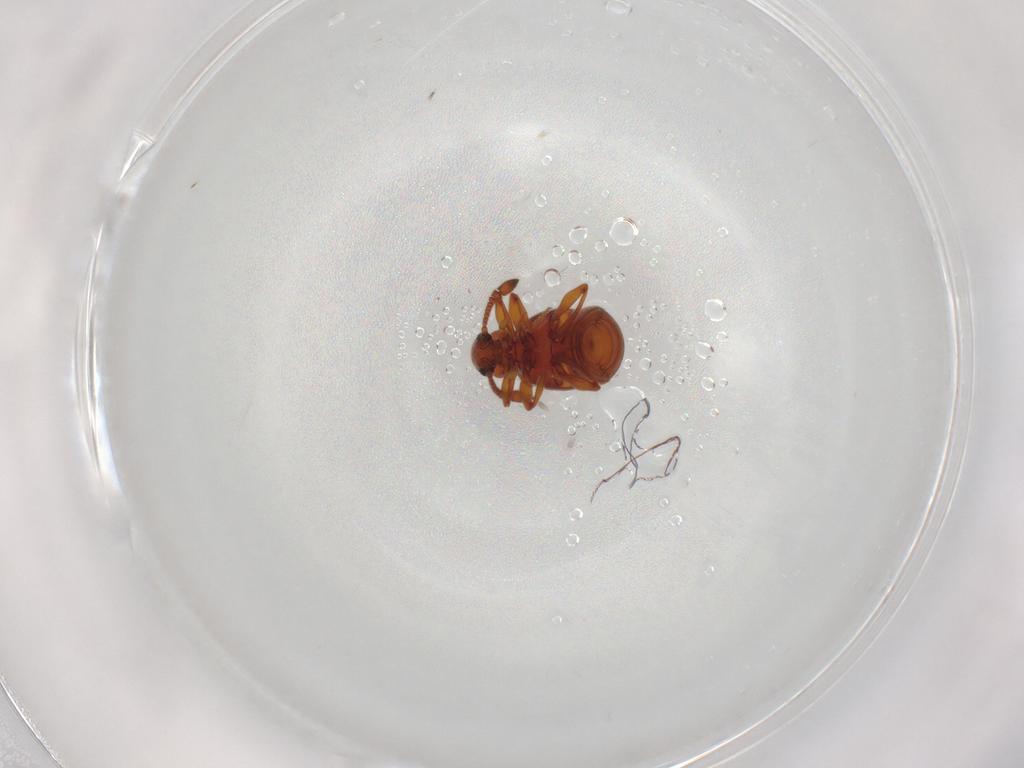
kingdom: Animalia
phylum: Arthropoda
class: Insecta
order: Coleoptera
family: Staphylinidae
